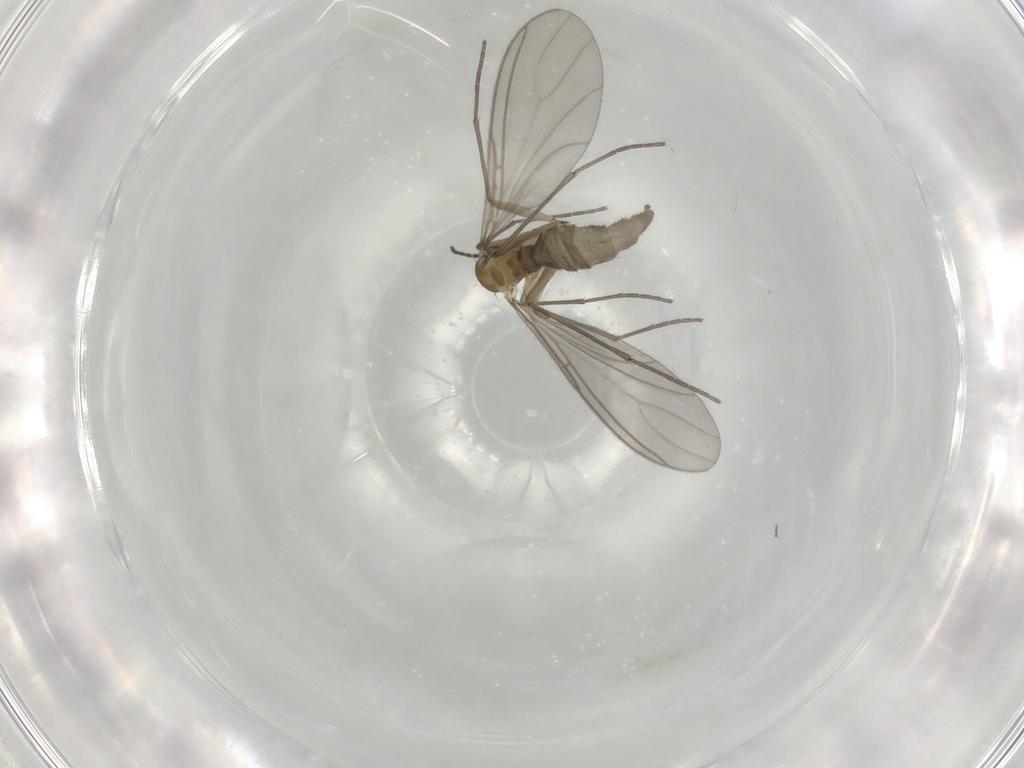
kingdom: Animalia
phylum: Arthropoda
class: Insecta
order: Diptera
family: Sciaridae
